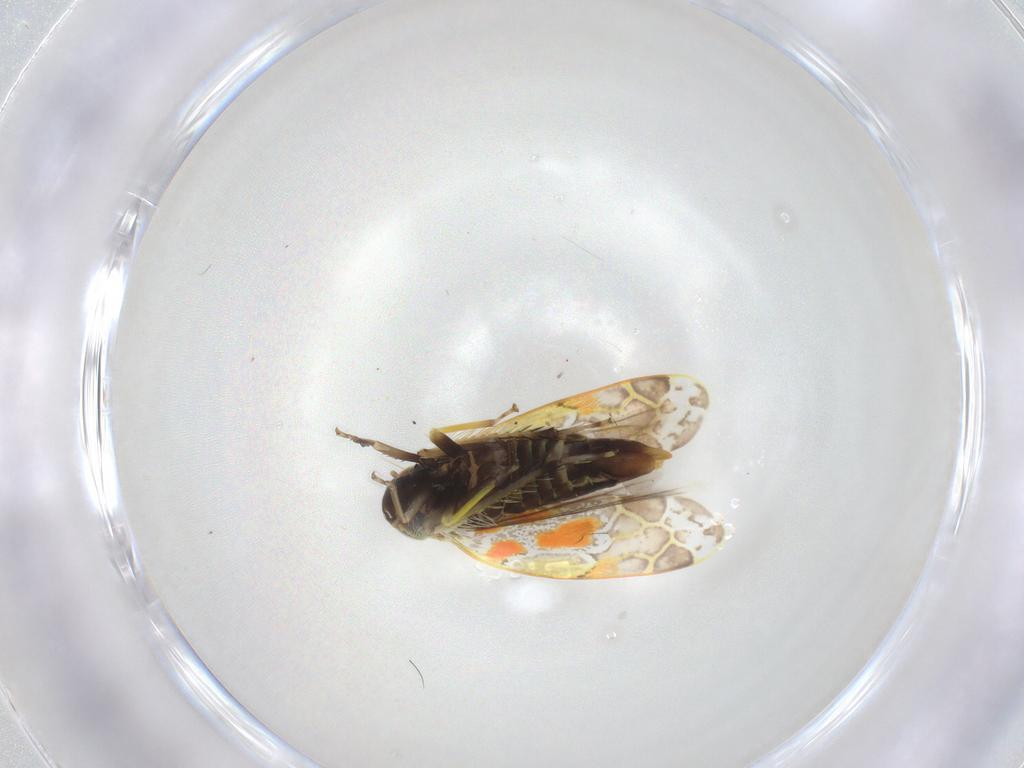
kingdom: Animalia
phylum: Arthropoda
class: Insecta
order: Hemiptera
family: Cicadellidae
